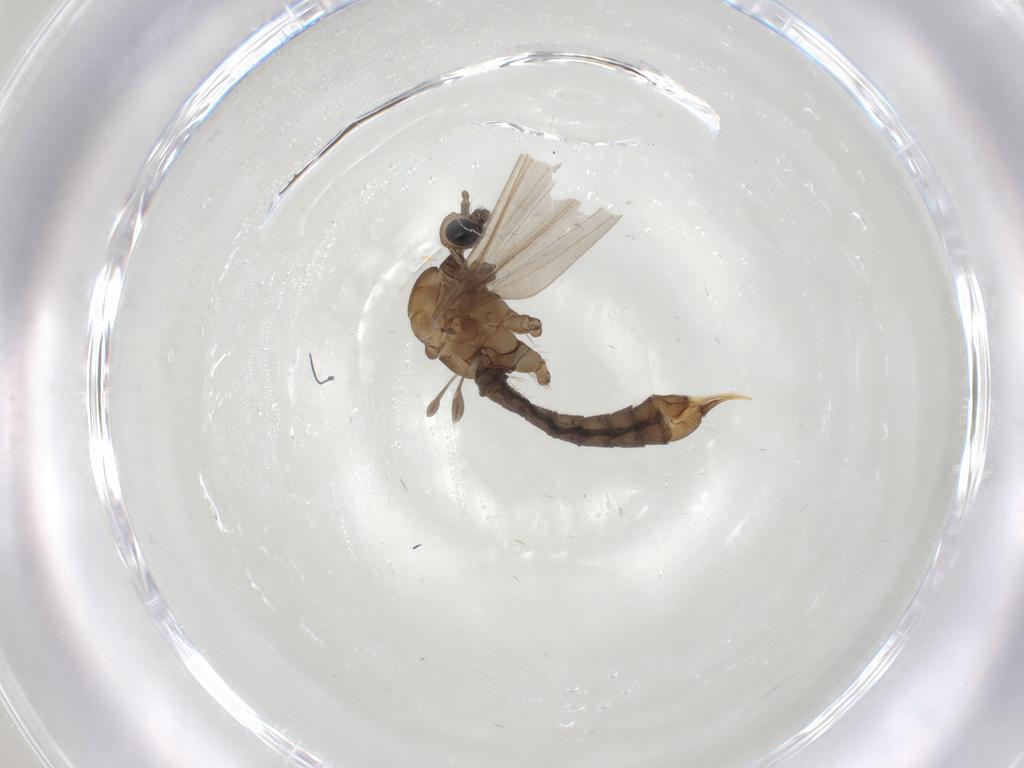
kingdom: Animalia
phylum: Arthropoda
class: Insecta
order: Diptera
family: Limoniidae
